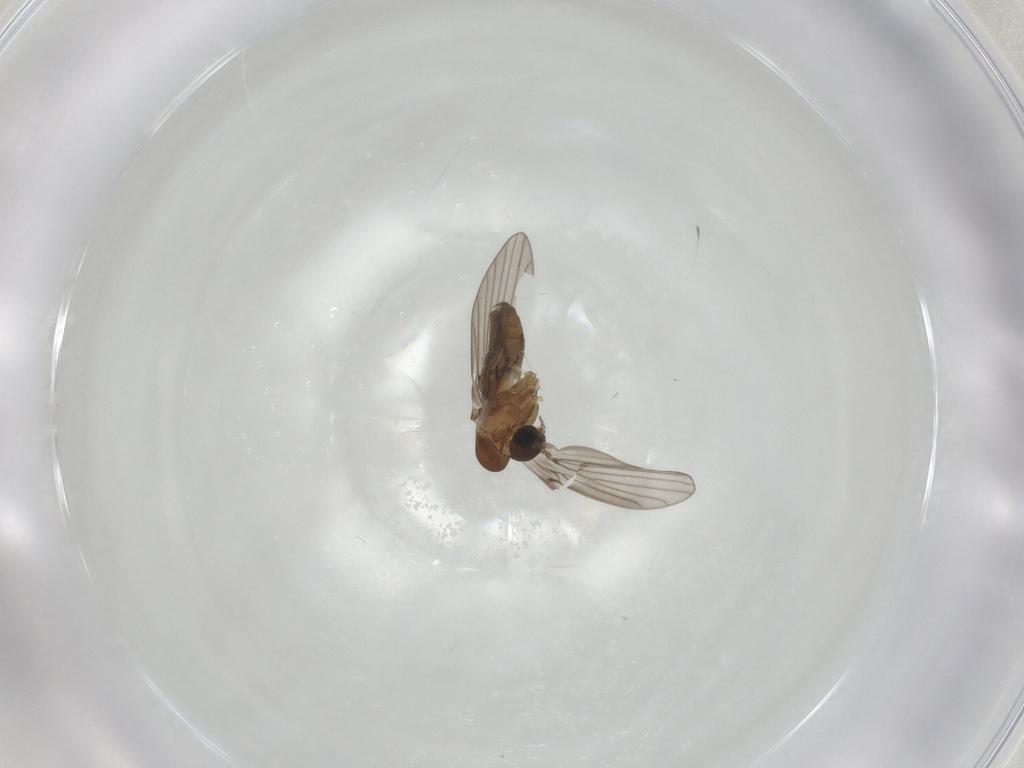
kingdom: Animalia
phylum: Arthropoda
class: Insecta
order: Diptera
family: Psychodidae
